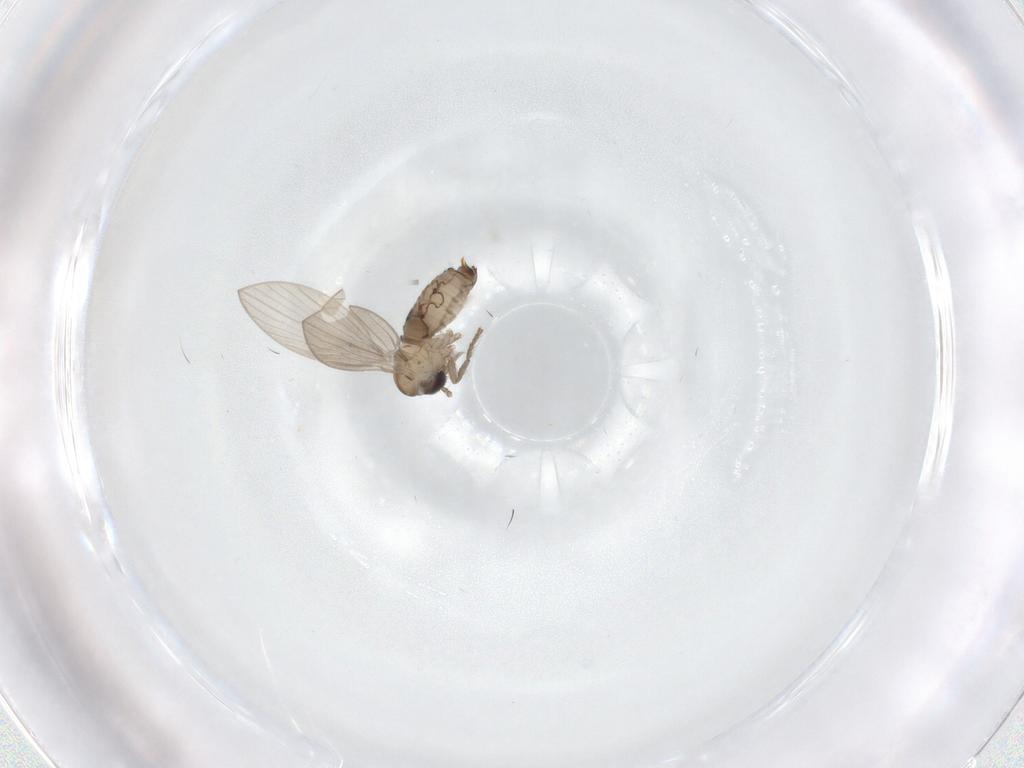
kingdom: Animalia
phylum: Arthropoda
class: Insecta
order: Diptera
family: Psychodidae
